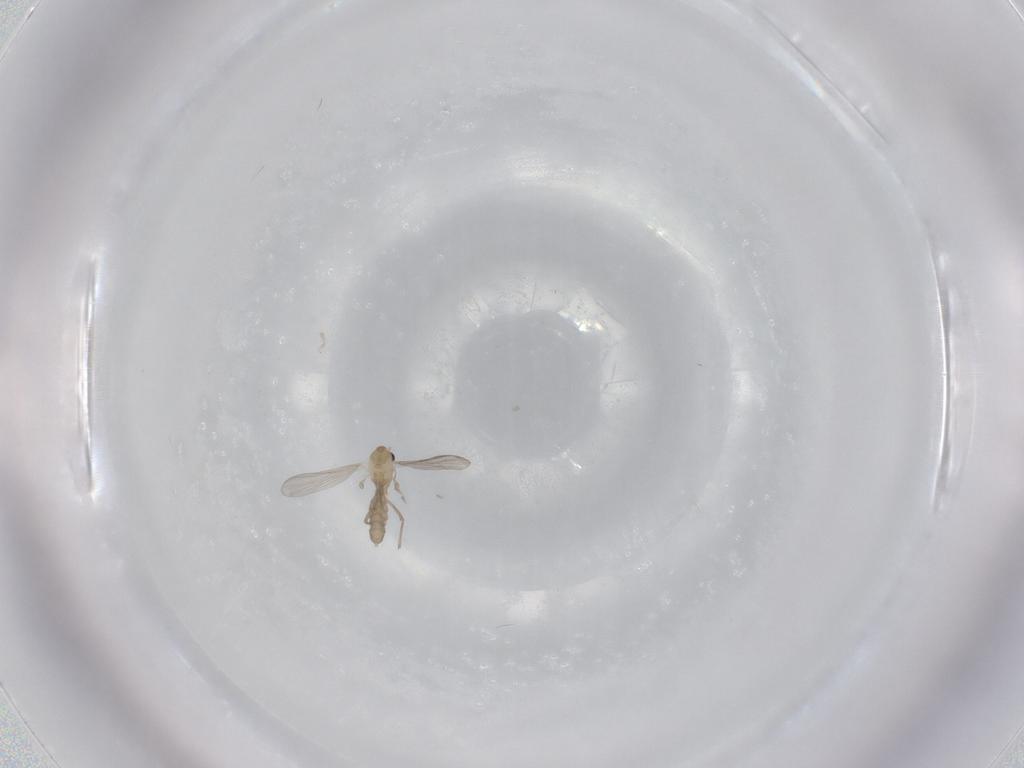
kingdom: Animalia
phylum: Arthropoda
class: Insecta
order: Diptera
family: Chironomidae
